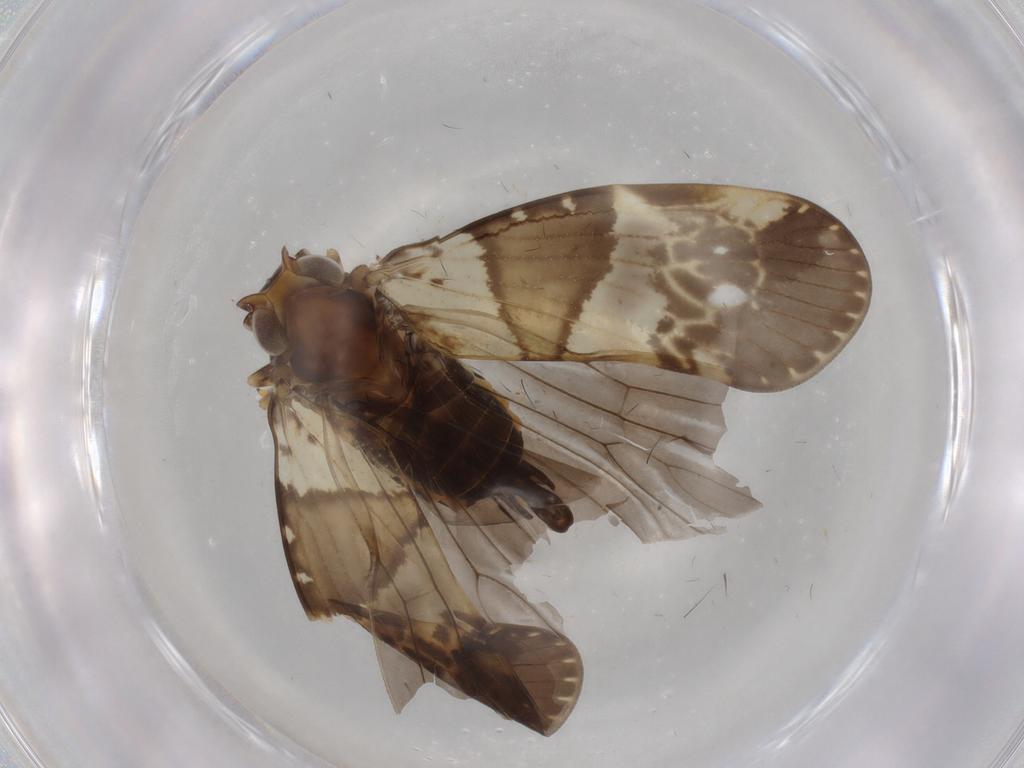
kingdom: Animalia
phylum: Arthropoda
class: Insecta
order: Hemiptera
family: Cixiidae
